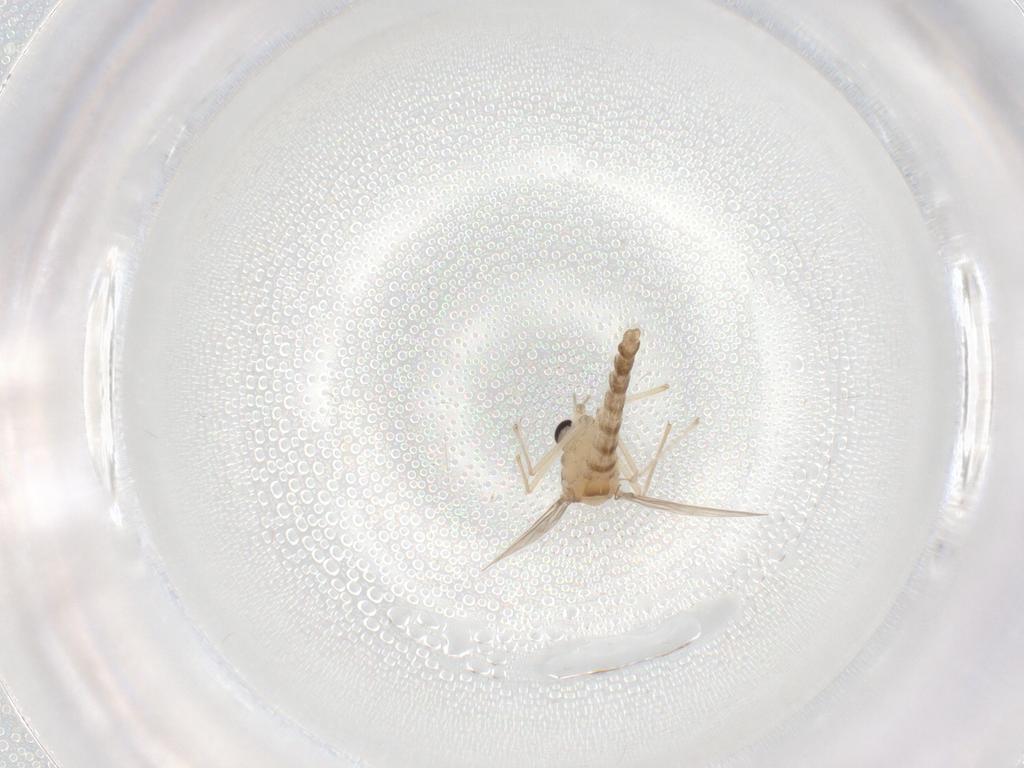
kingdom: Animalia
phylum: Arthropoda
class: Insecta
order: Diptera
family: Chironomidae
